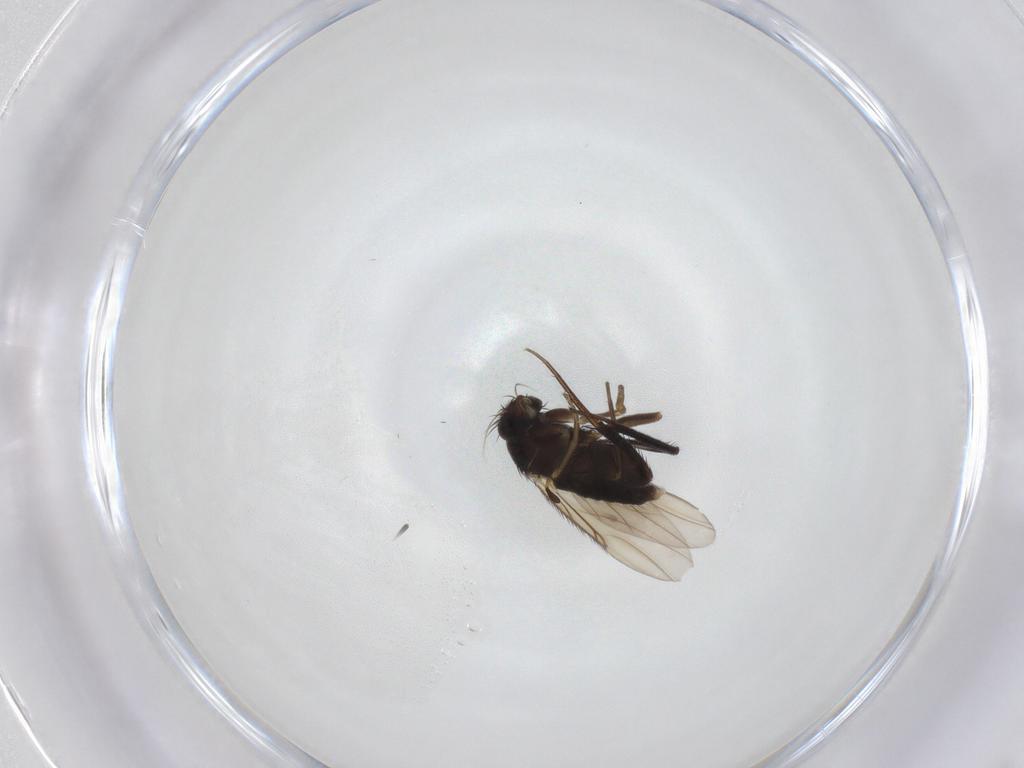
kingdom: Animalia
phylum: Arthropoda
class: Insecta
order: Diptera
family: Phoridae
